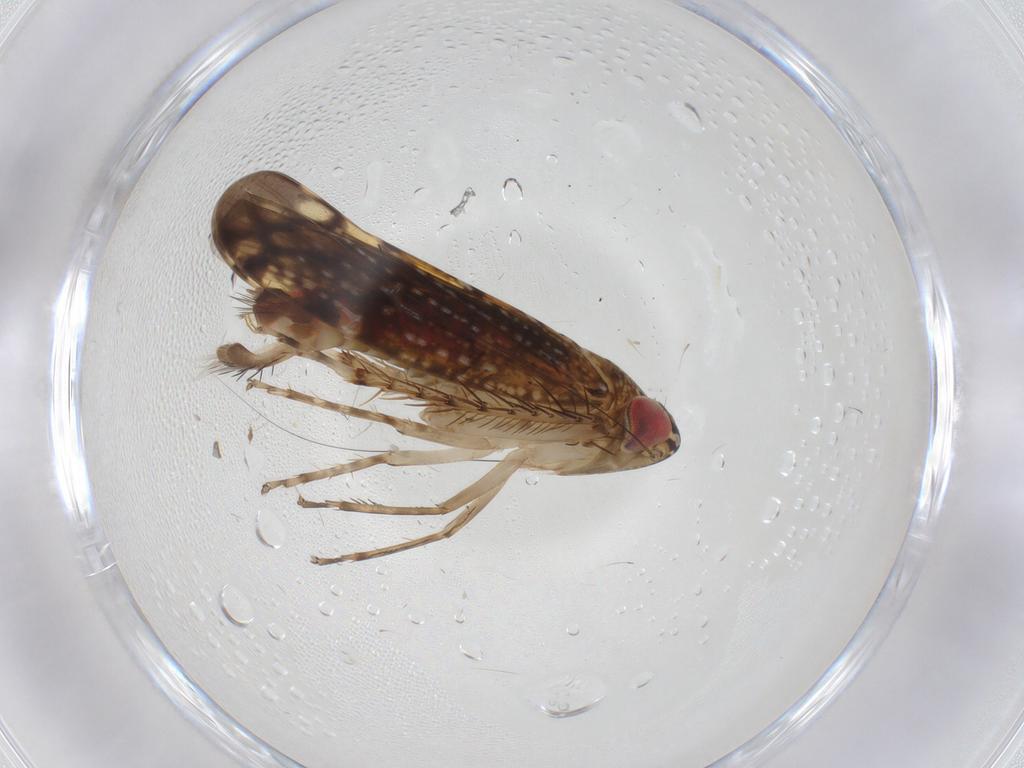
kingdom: Animalia
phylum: Arthropoda
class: Insecta
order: Hemiptera
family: Cicadellidae
